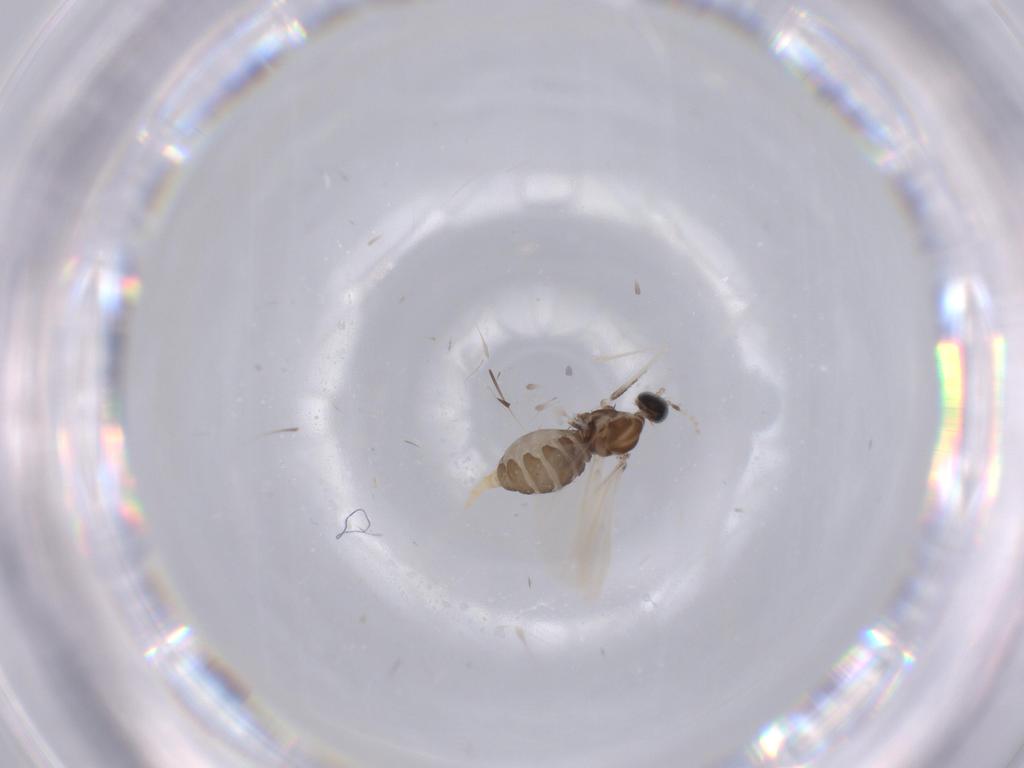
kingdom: Animalia
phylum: Arthropoda
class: Insecta
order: Diptera
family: Cecidomyiidae
